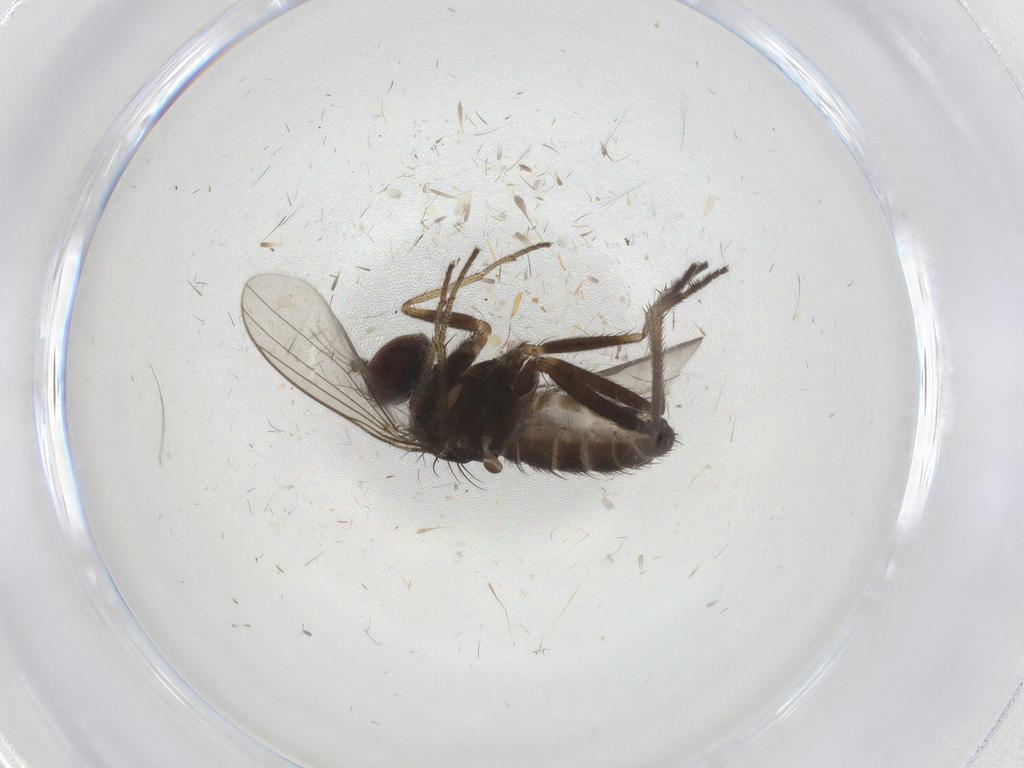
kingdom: Animalia
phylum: Arthropoda
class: Insecta
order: Diptera
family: Dolichopodidae
